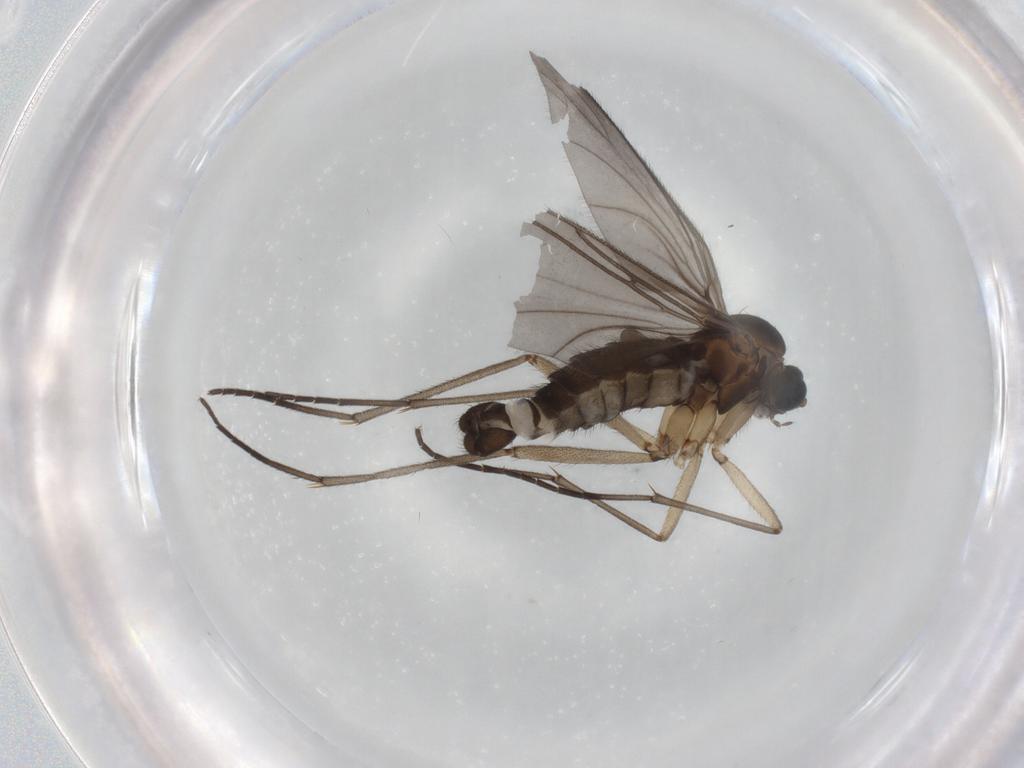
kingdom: Animalia
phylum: Arthropoda
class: Insecta
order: Diptera
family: Sciaridae
